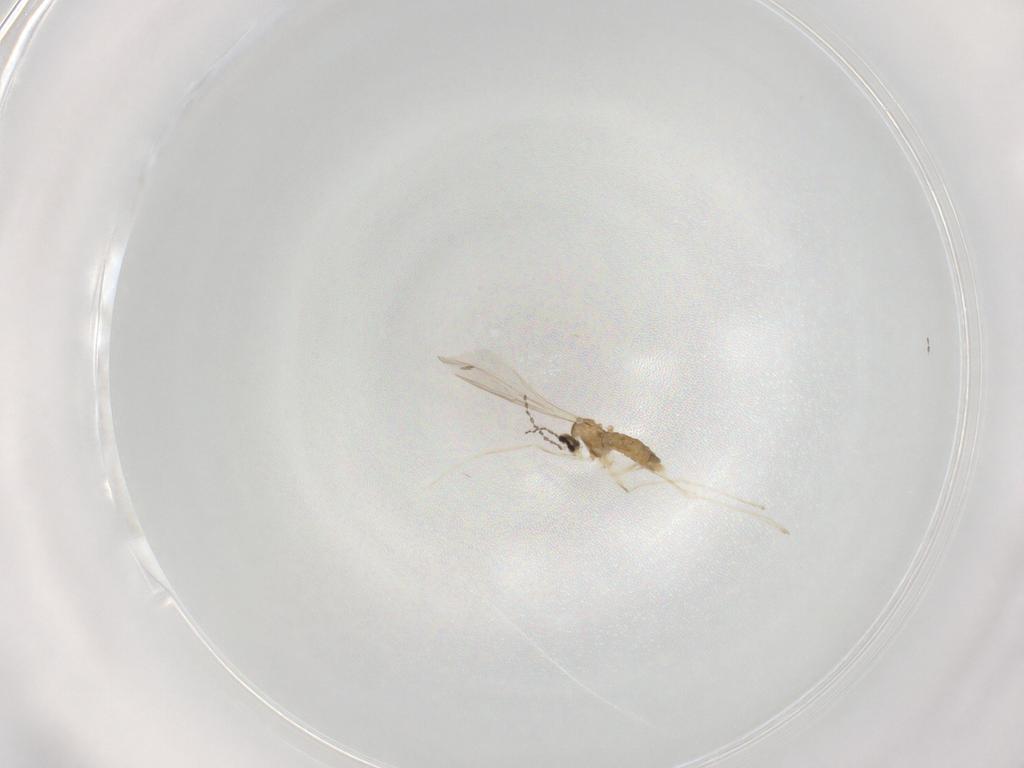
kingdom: Animalia
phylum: Arthropoda
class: Insecta
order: Diptera
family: Cecidomyiidae
